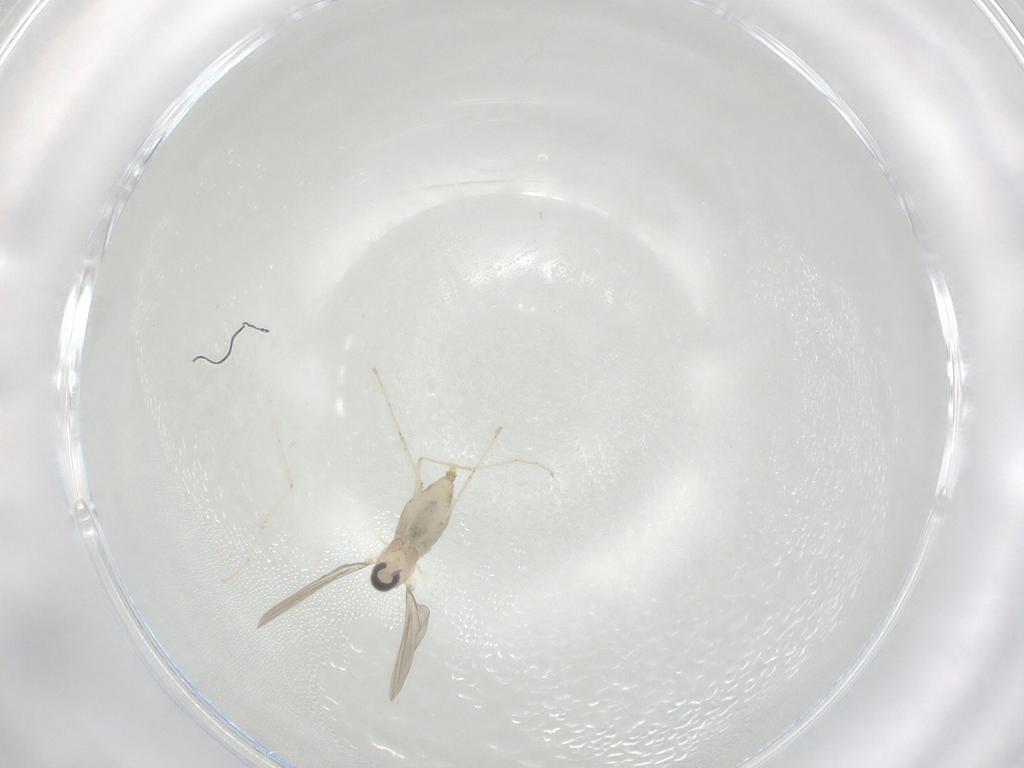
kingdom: Animalia
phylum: Arthropoda
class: Insecta
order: Diptera
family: Cecidomyiidae
